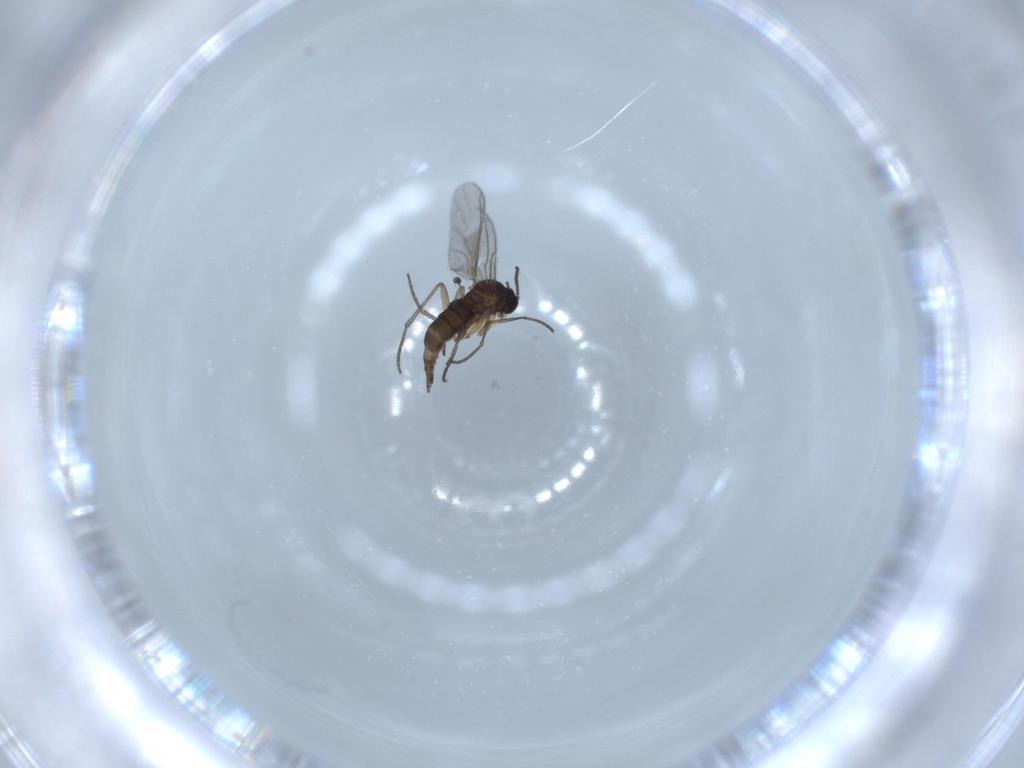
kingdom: Animalia
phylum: Arthropoda
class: Insecta
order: Diptera
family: Sciaridae
